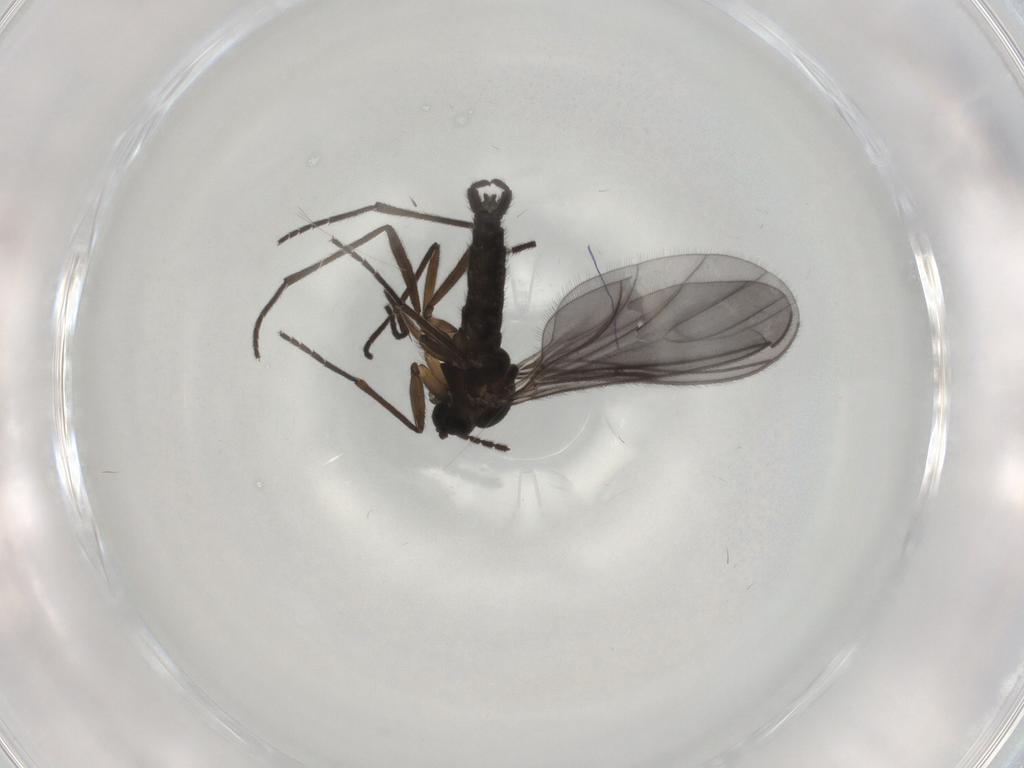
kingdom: Animalia
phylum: Arthropoda
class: Insecta
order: Diptera
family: Sciaridae
